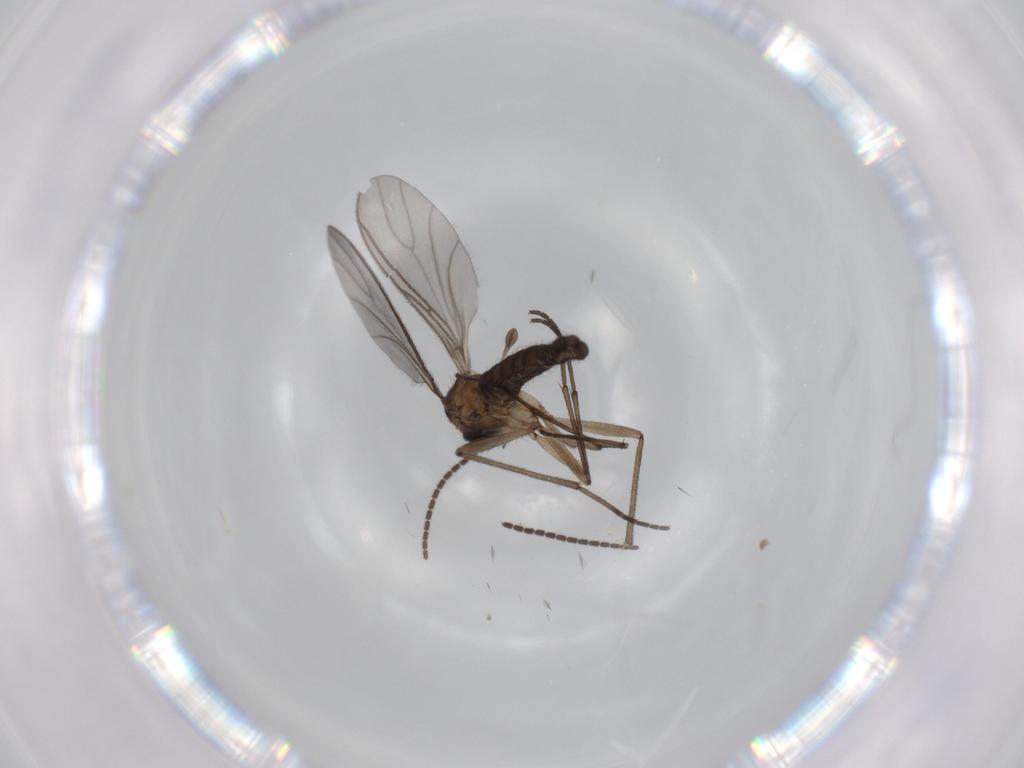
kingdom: Animalia
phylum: Arthropoda
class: Insecta
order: Diptera
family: Sciaridae
